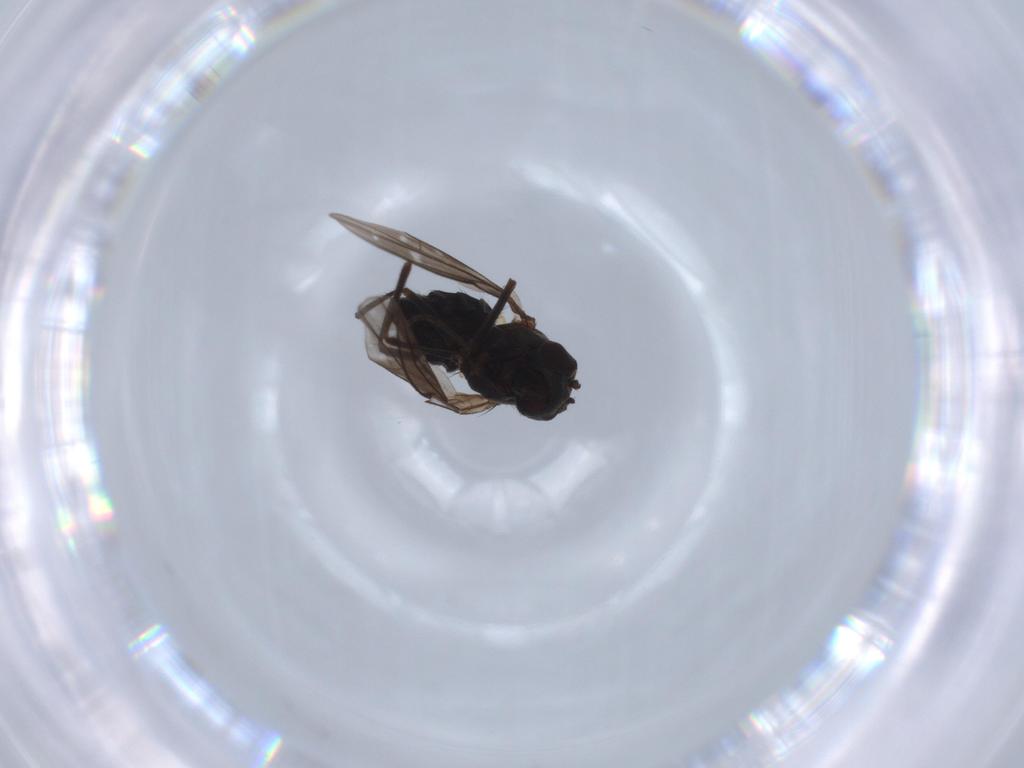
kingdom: Animalia
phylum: Arthropoda
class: Insecta
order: Diptera
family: Ephydridae
